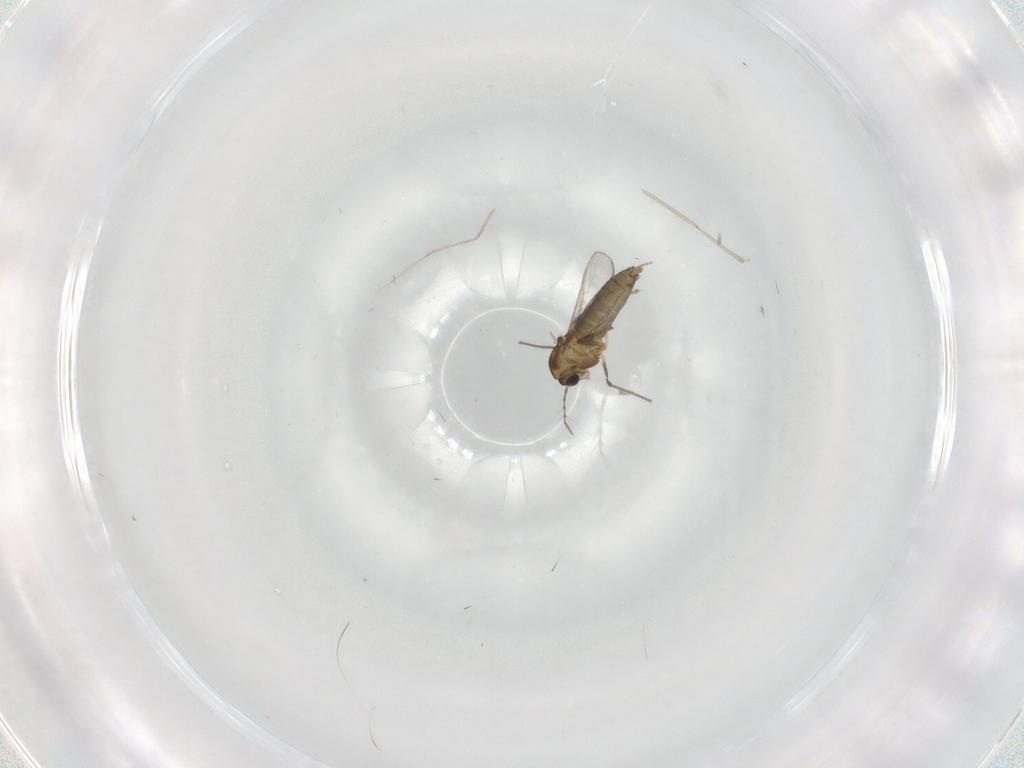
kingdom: Animalia
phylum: Arthropoda
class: Insecta
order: Diptera
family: Chironomidae
